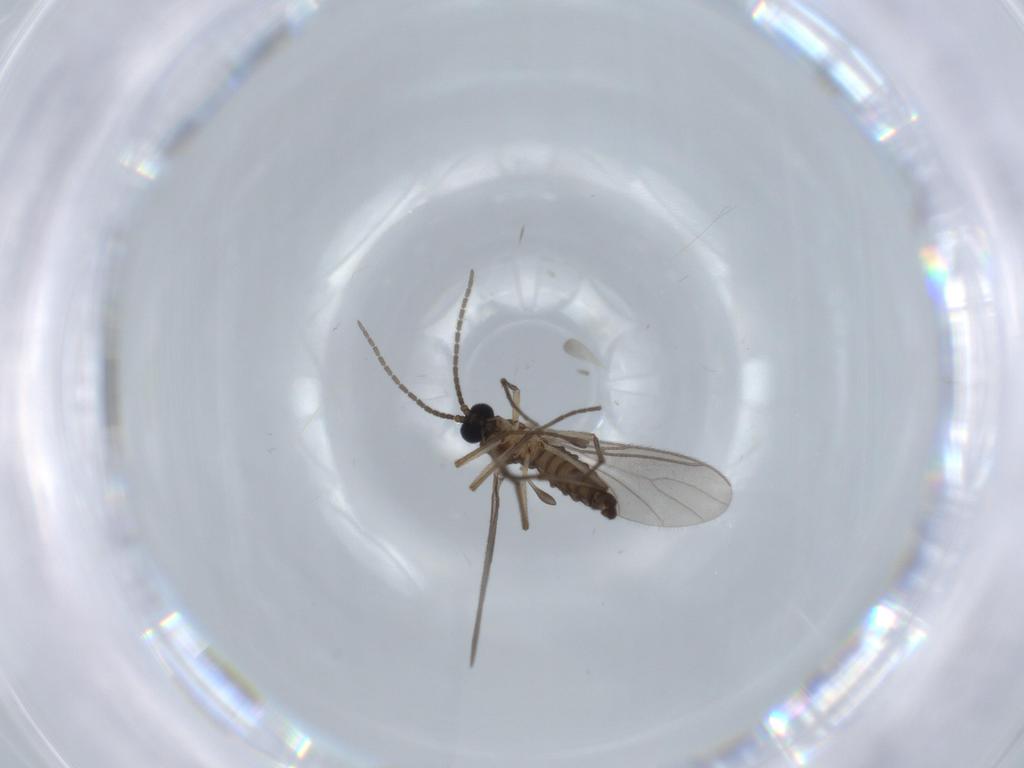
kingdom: Animalia
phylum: Arthropoda
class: Insecta
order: Diptera
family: Sciaridae
